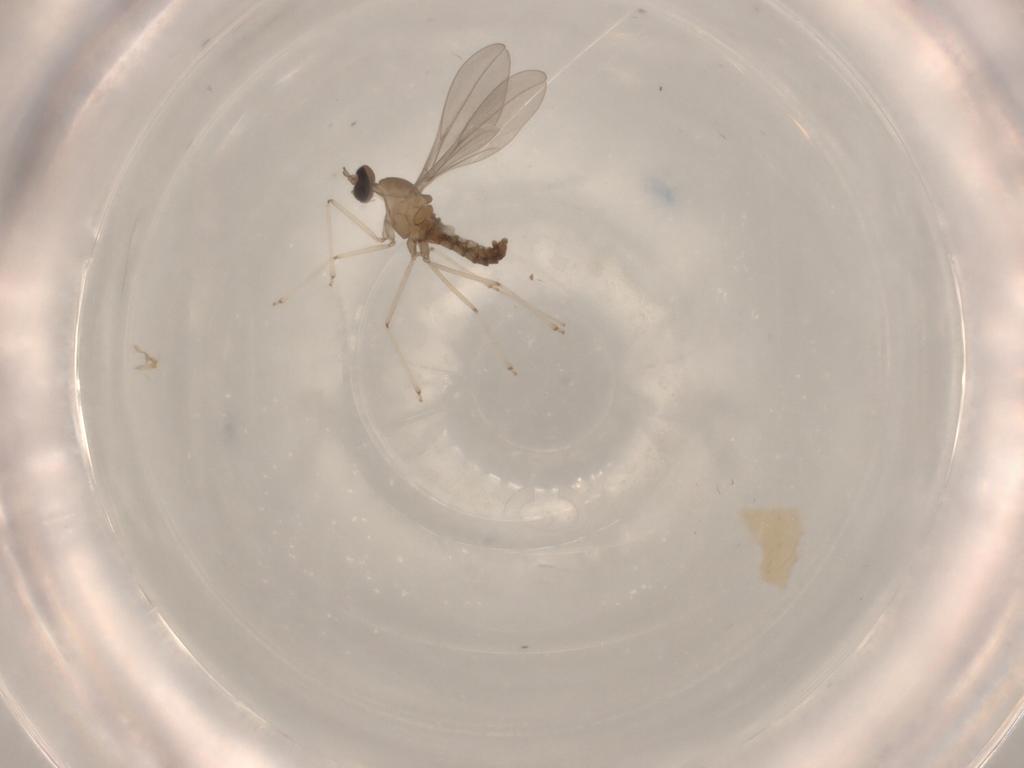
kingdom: Animalia
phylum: Arthropoda
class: Insecta
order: Diptera
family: Cecidomyiidae
